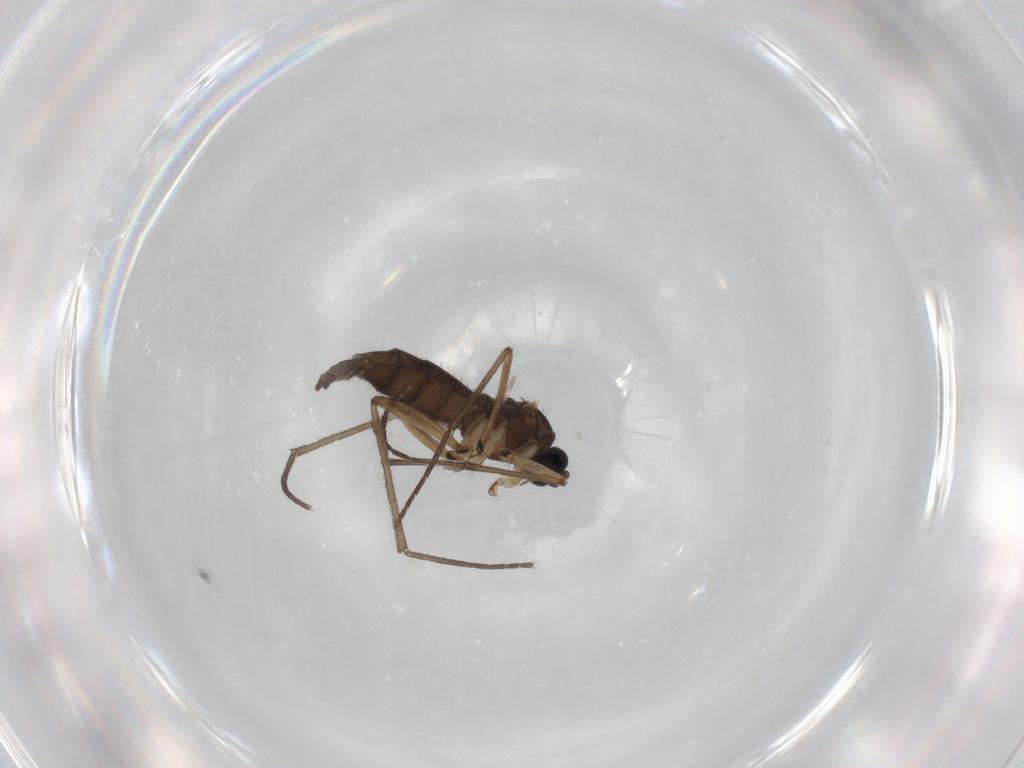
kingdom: Animalia
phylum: Arthropoda
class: Insecta
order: Diptera
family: Sciaridae
